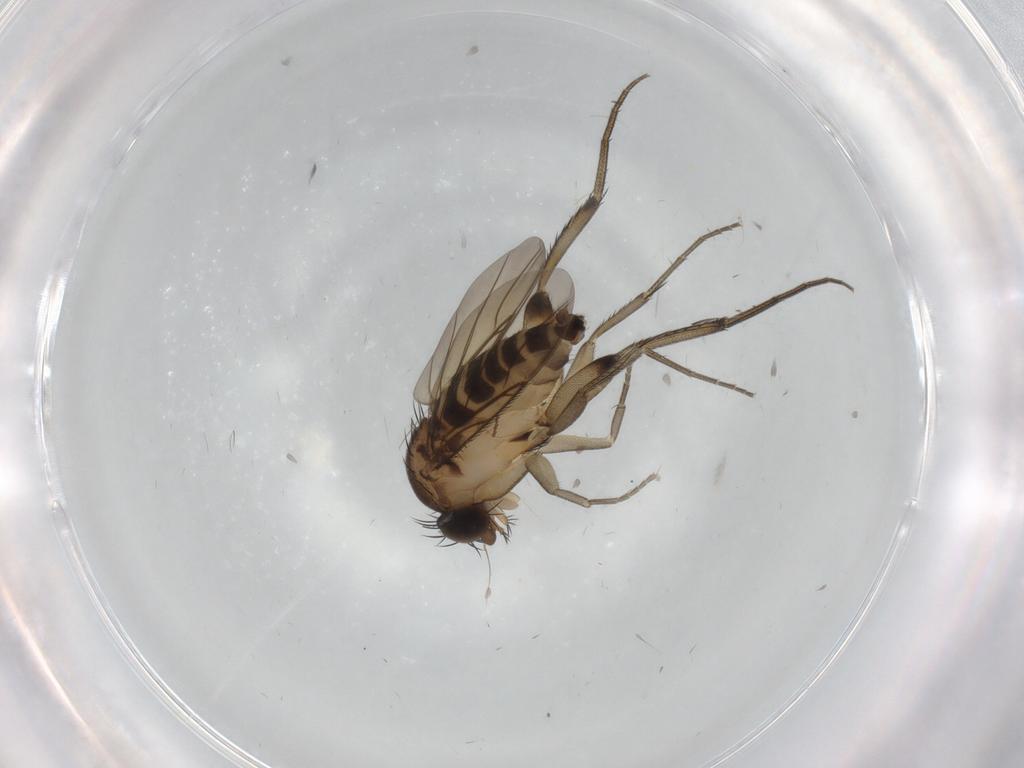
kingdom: Animalia
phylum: Arthropoda
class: Insecta
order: Diptera
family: Phoridae
